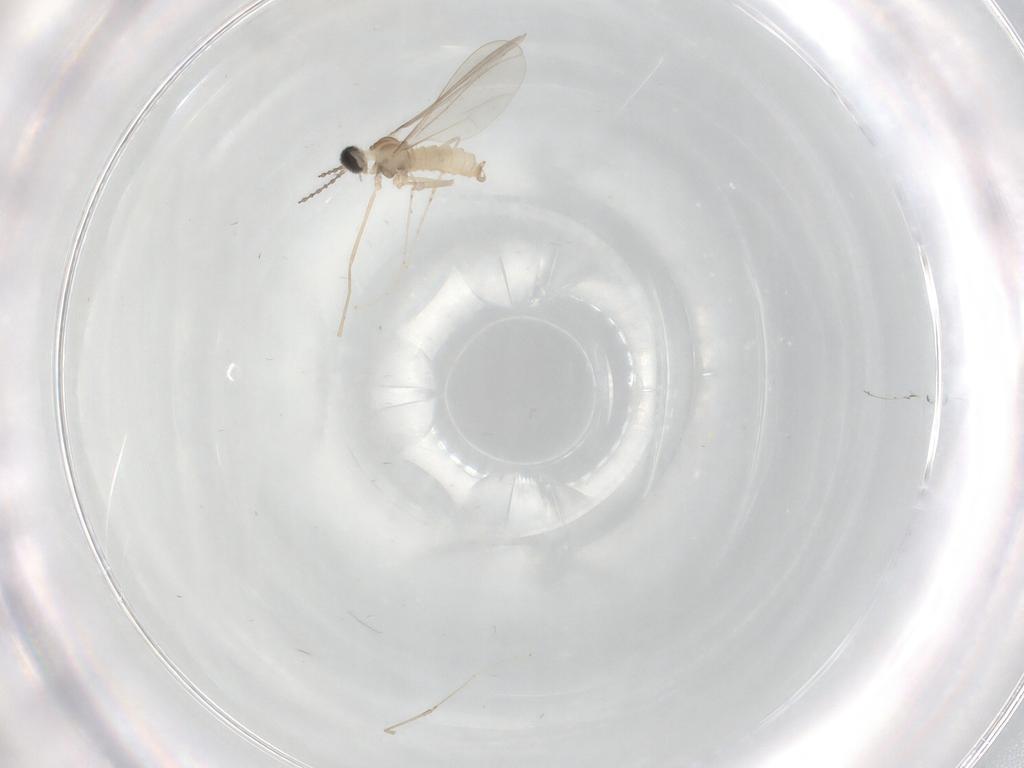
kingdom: Animalia
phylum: Arthropoda
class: Insecta
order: Diptera
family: Cecidomyiidae
